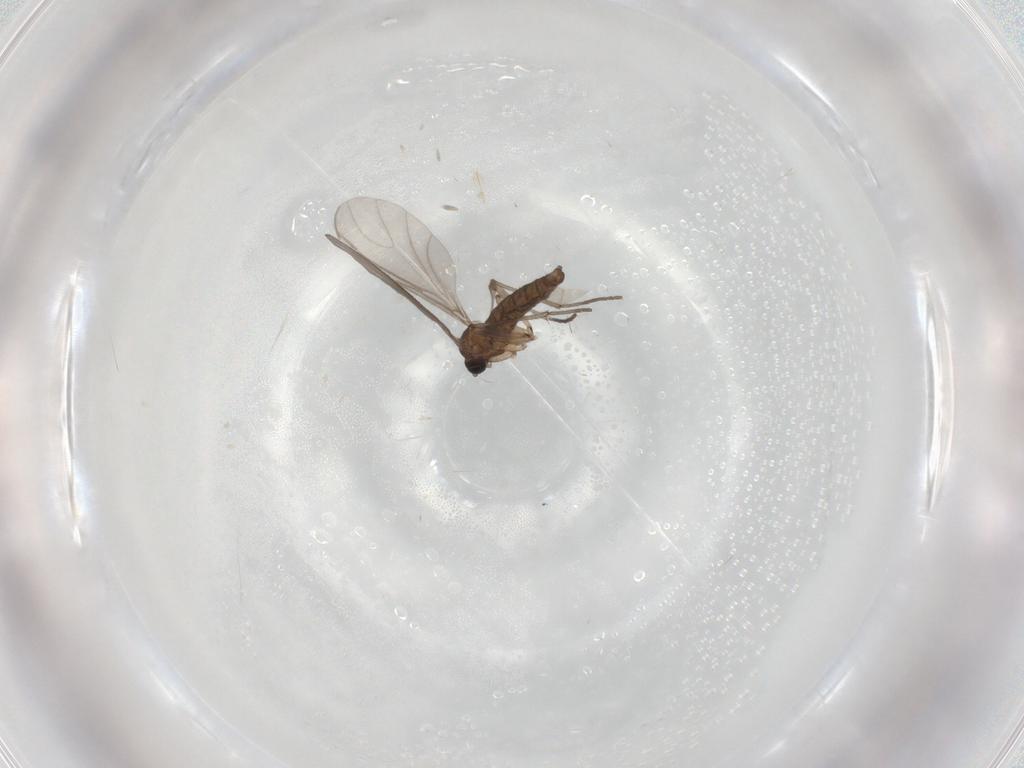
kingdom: Animalia
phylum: Arthropoda
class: Insecta
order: Diptera
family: Sciaridae
